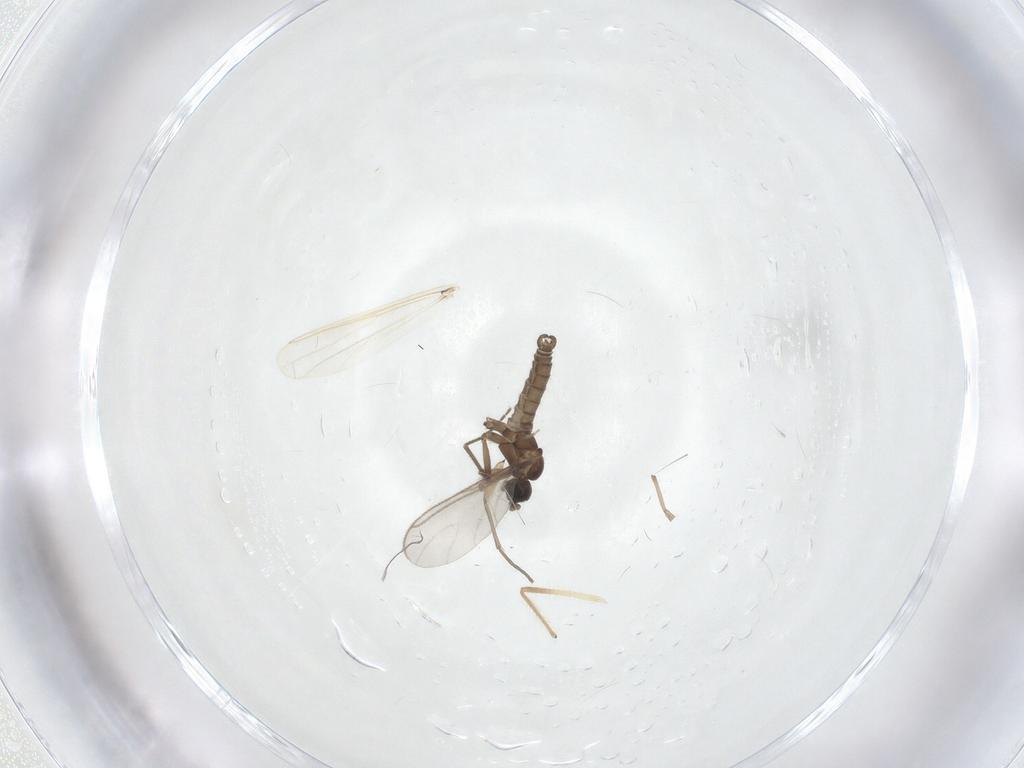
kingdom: Animalia
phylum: Arthropoda
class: Insecta
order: Diptera
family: Sciaridae
